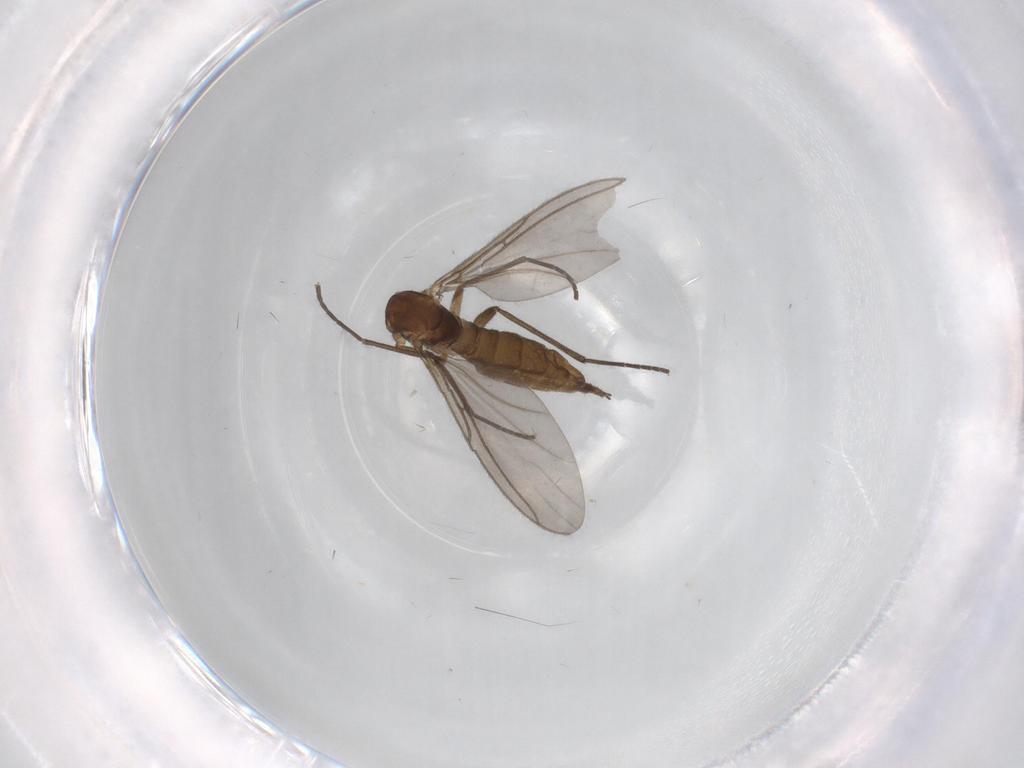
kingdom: Animalia
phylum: Arthropoda
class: Insecta
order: Diptera
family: Sciaridae
